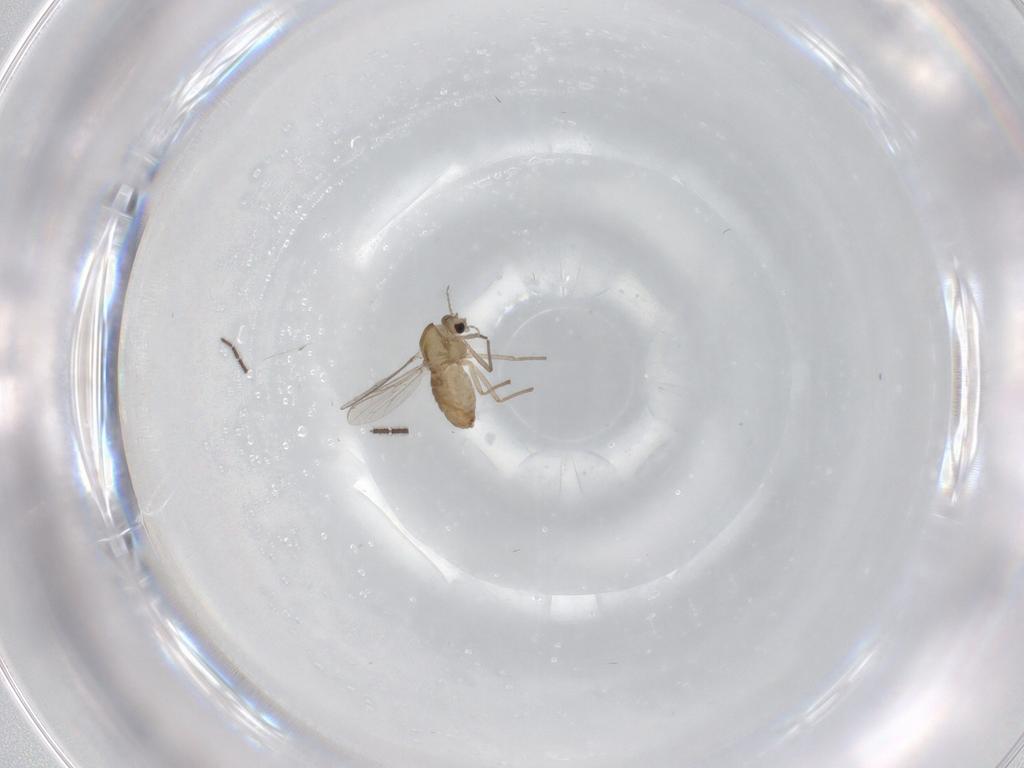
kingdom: Animalia
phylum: Arthropoda
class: Insecta
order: Diptera
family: Chironomidae
